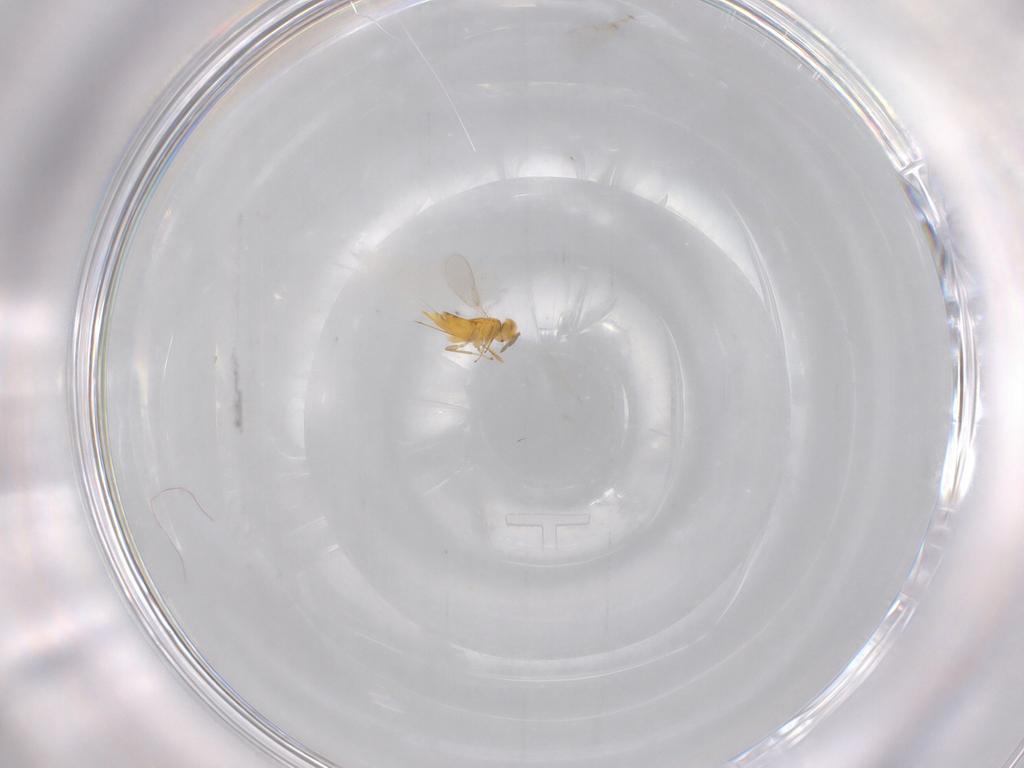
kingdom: Animalia
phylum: Arthropoda
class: Insecta
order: Hymenoptera
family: Aphelinidae
